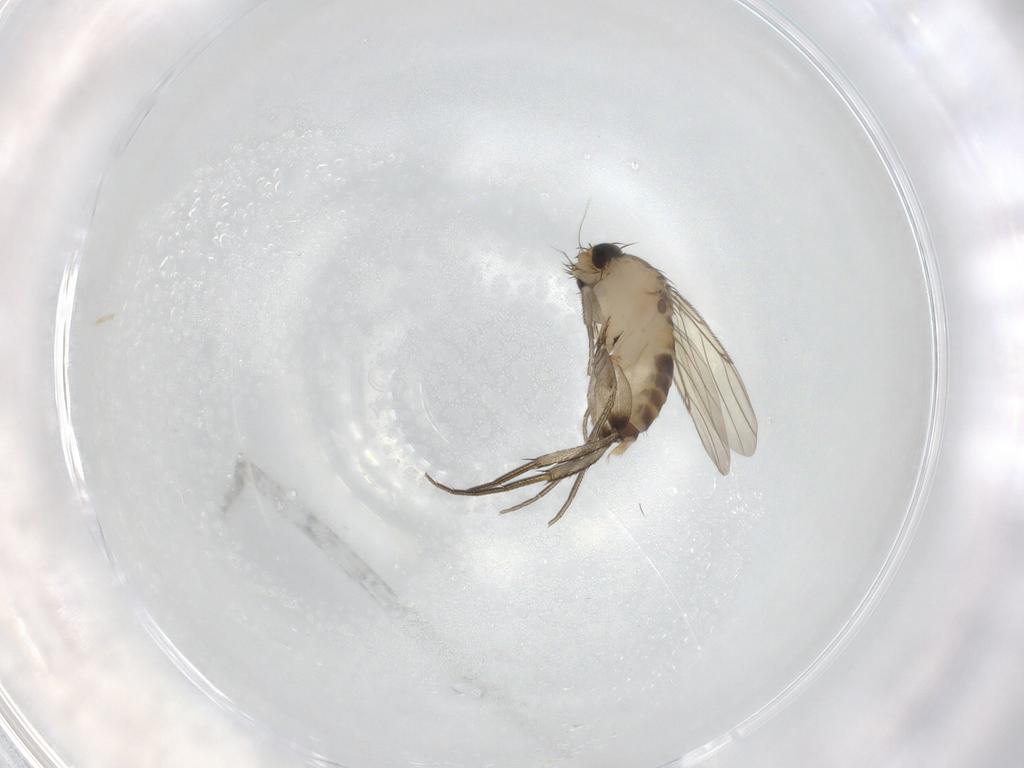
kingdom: Animalia
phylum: Arthropoda
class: Insecta
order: Diptera
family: Phoridae
